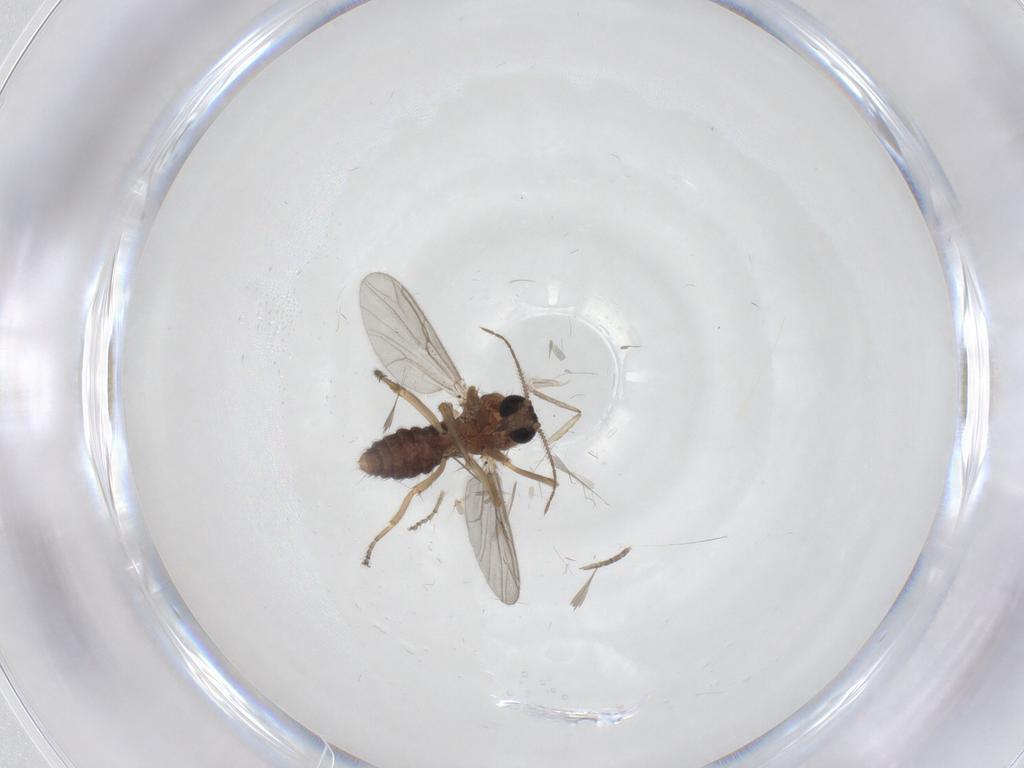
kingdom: Animalia
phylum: Arthropoda
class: Insecta
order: Diptera
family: Ceratopogonidae
